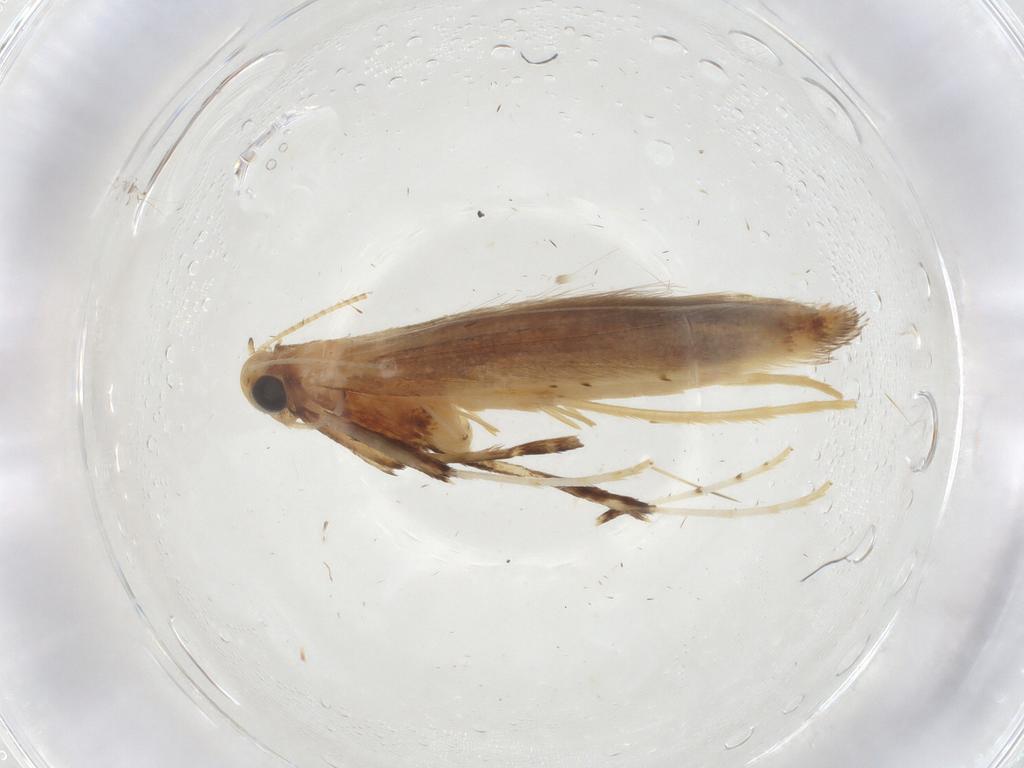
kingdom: Animalia
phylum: Arthropoda
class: Insecta
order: Lepidoptera
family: Gracillariidae
